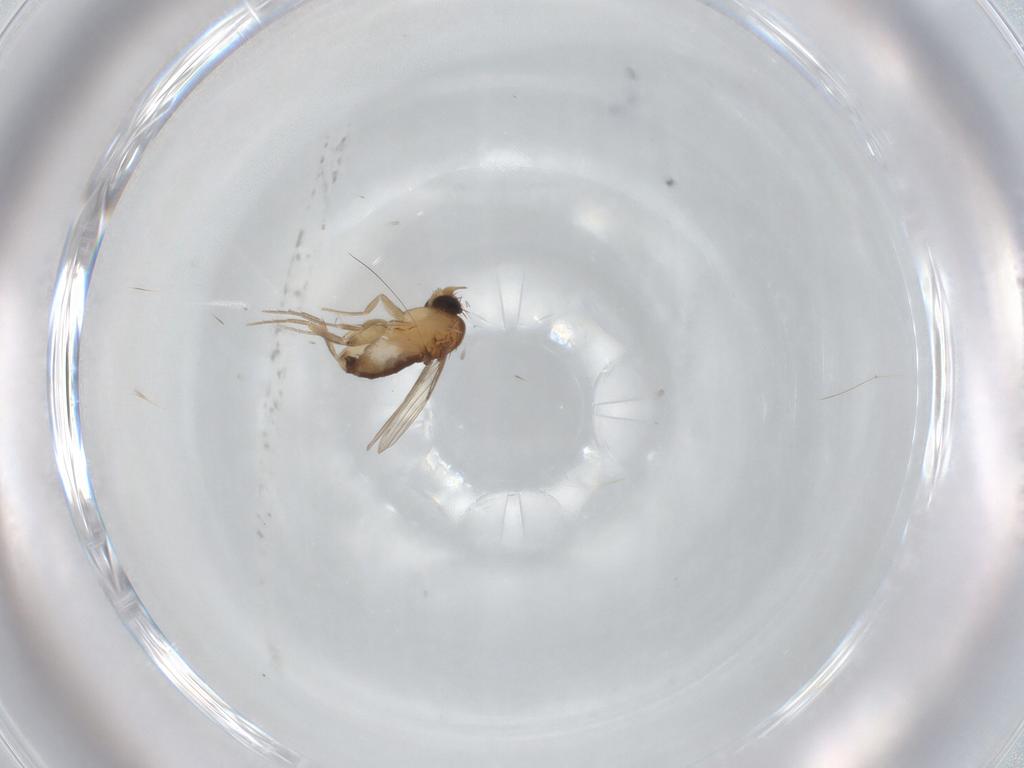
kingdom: Animalia
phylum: Arthropoda
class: Insecta
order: Diptera
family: Phoridae
